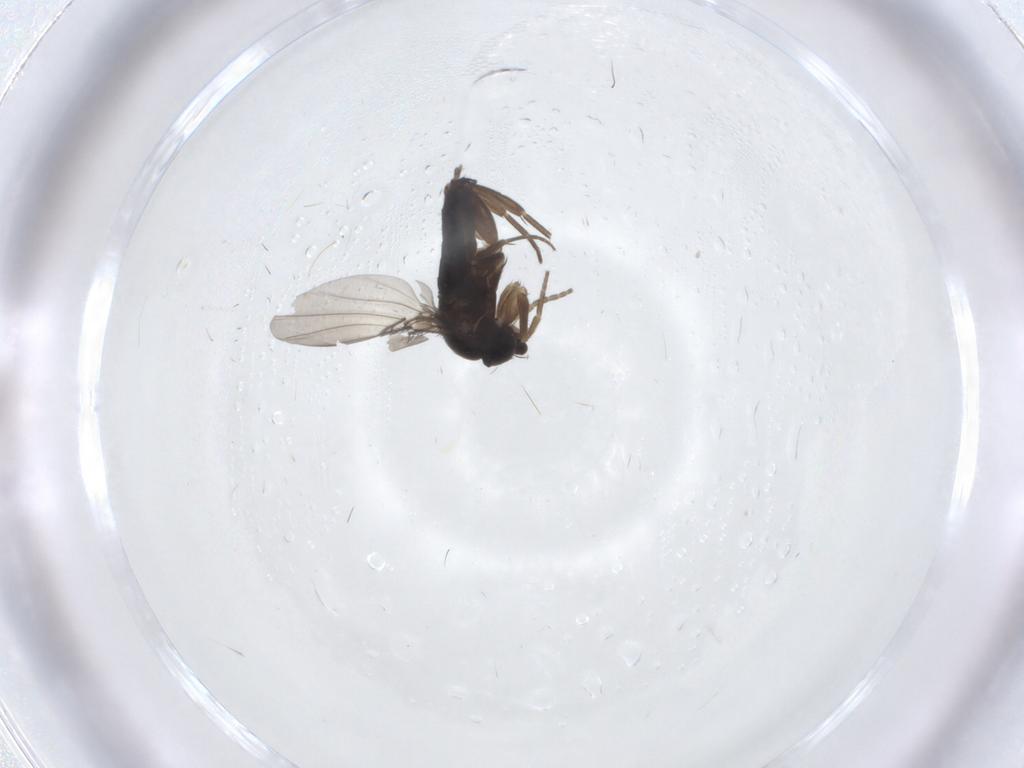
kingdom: Animalia
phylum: Arthropoda
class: Insecta
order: Diptera
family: Phoridae
